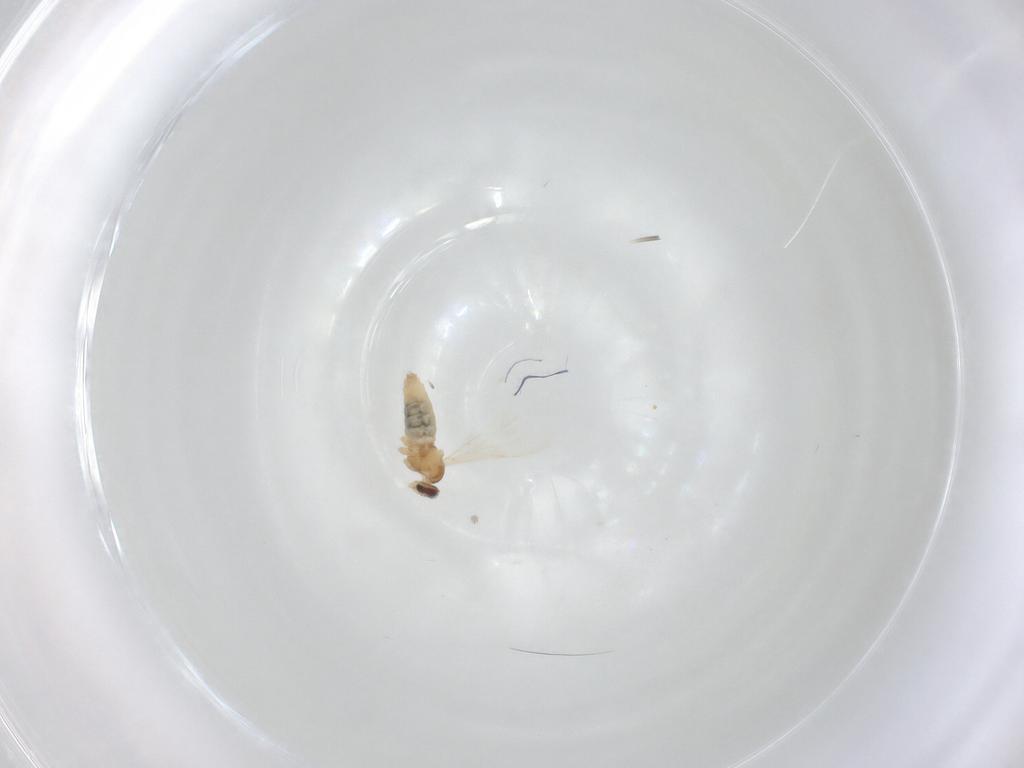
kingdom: Animalia
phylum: Arthropoda
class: Insecta
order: Diptera
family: Cecidomyiidae
